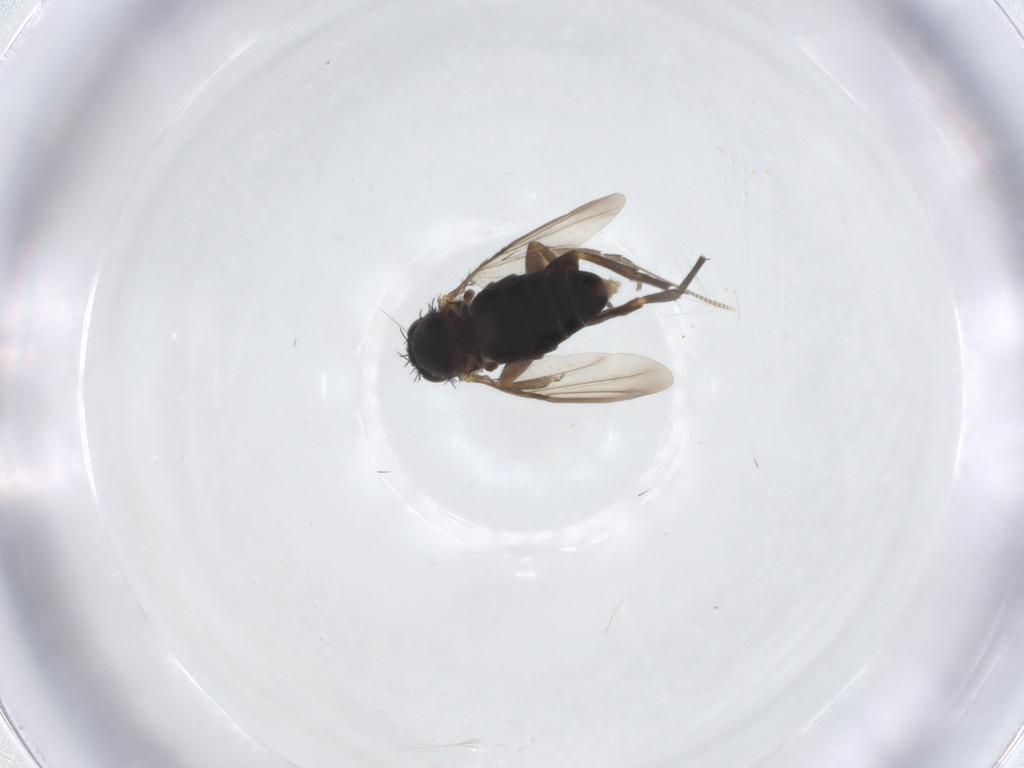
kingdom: Animalia
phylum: Arthropoda
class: Insecta
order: Diptera
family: Phoridae
